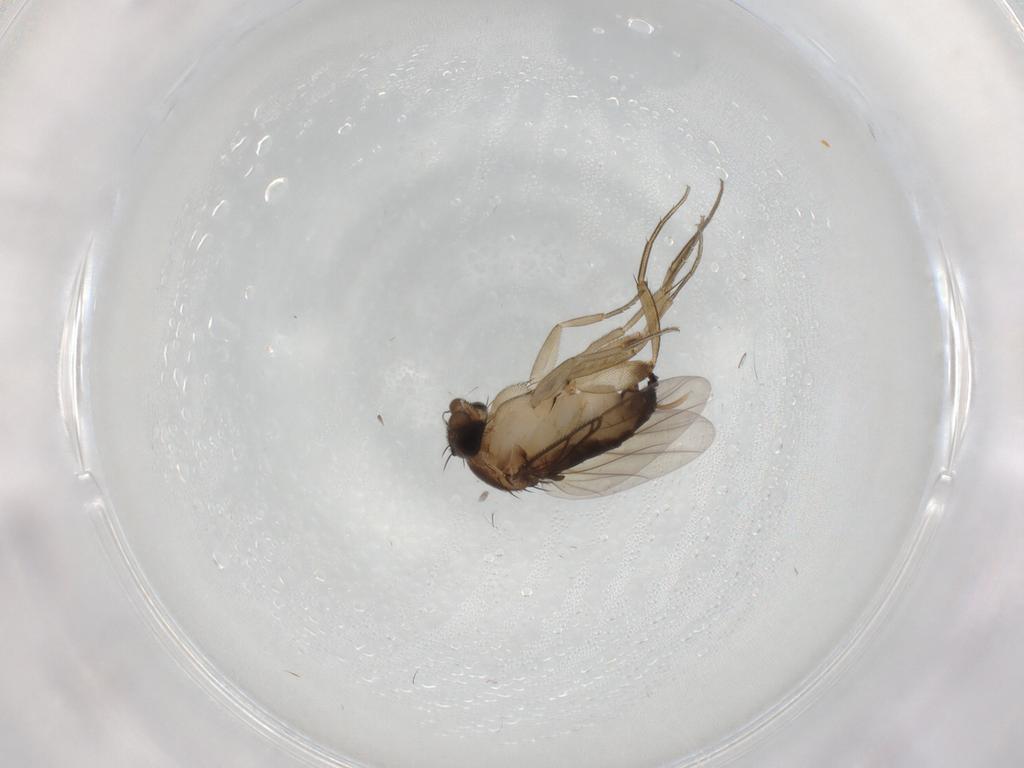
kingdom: Animalia
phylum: Arthropoda
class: Insecta
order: Diptera
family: Phoridae
